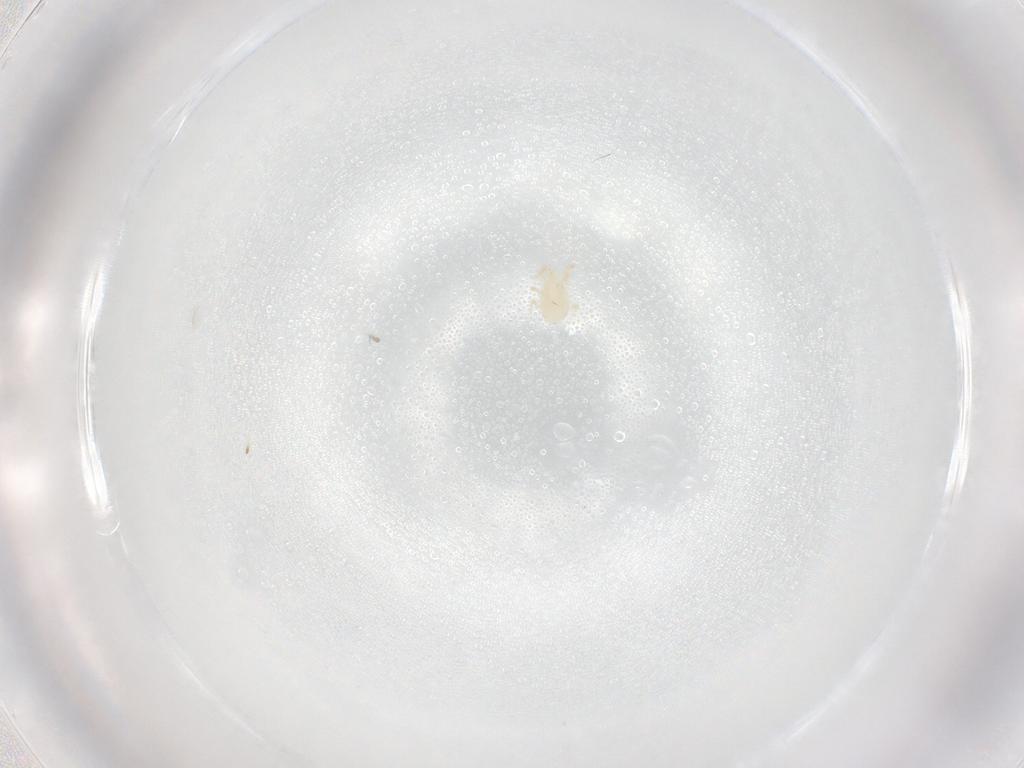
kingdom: Animalia
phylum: Arthropoda
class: Arachnida
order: Mesostigmata
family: Phytoseiidae
